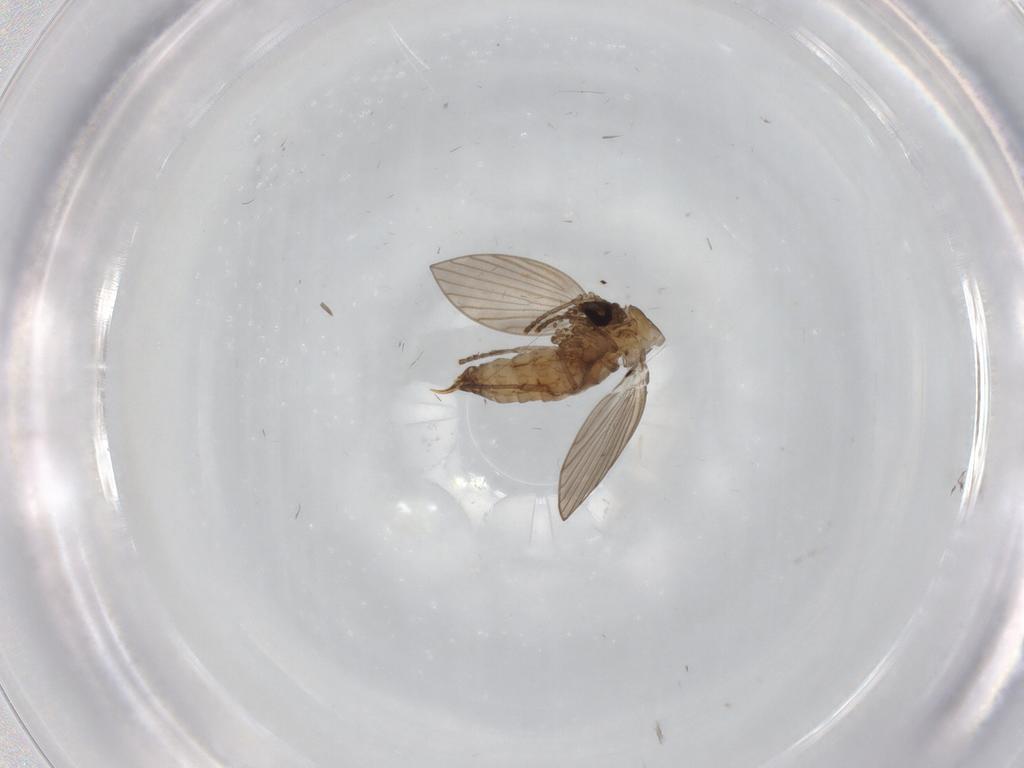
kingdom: Animalia
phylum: Arthropoda
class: Insecta
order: Diptera
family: Psychodidae
